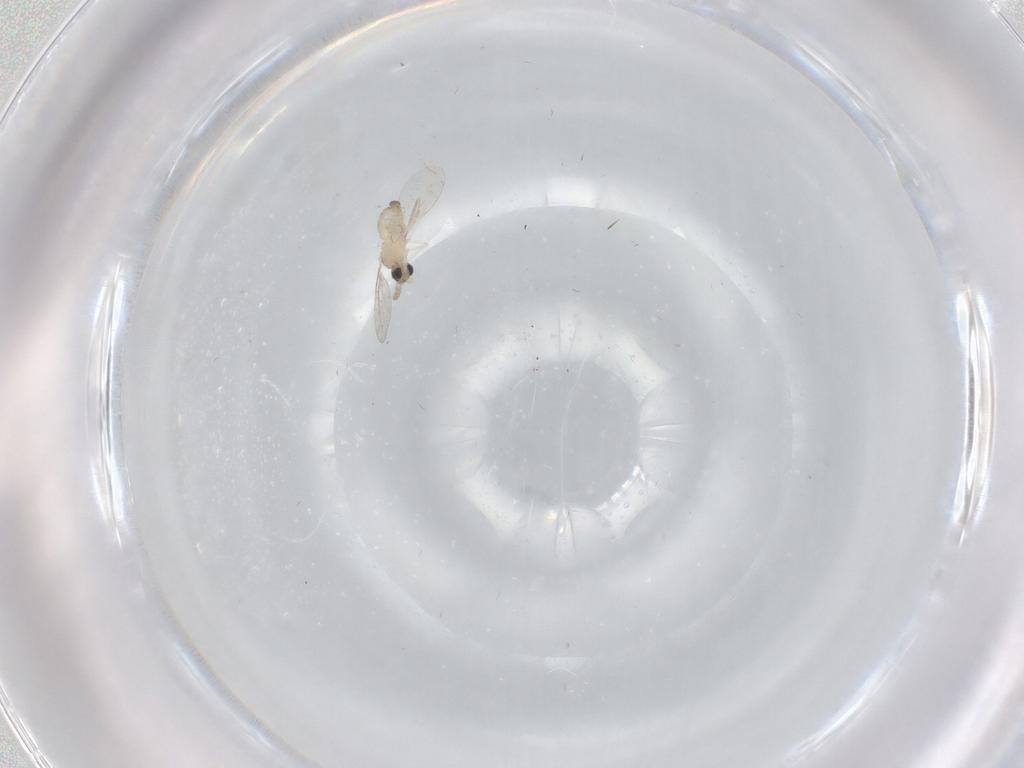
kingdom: Animalia
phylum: Arthropoda
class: Insecta
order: Diptera
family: Cecidomyiidae
